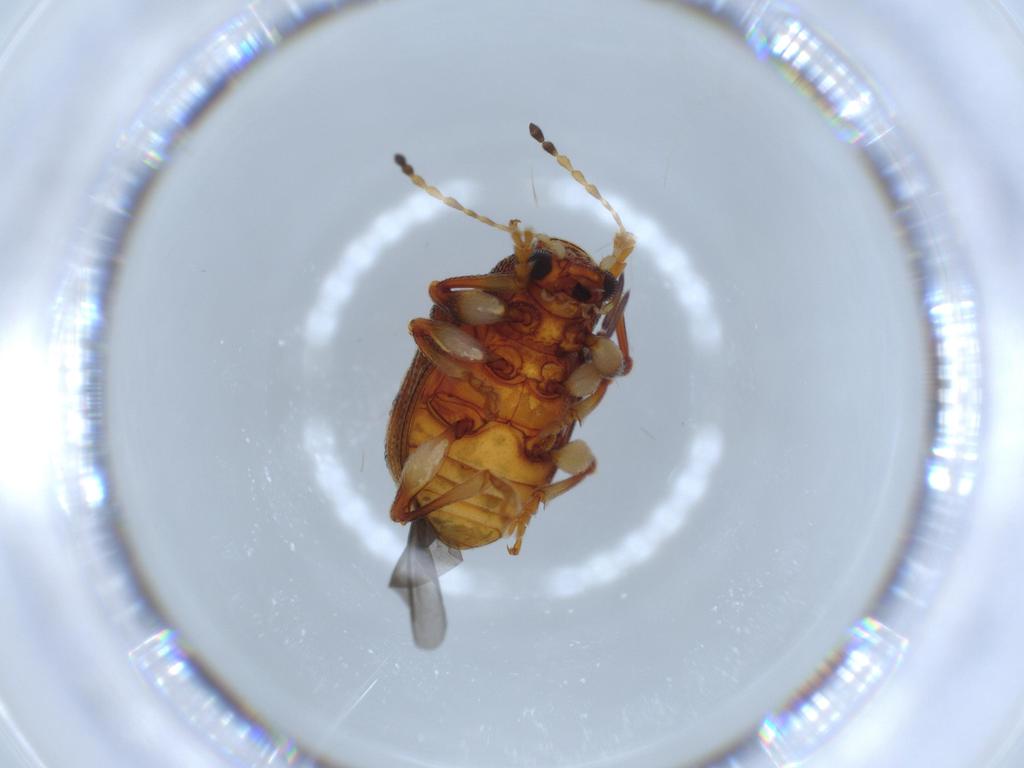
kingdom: Animalia
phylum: Arthropoda
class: Insecta
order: Coleoptera
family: Chrysomelidae
